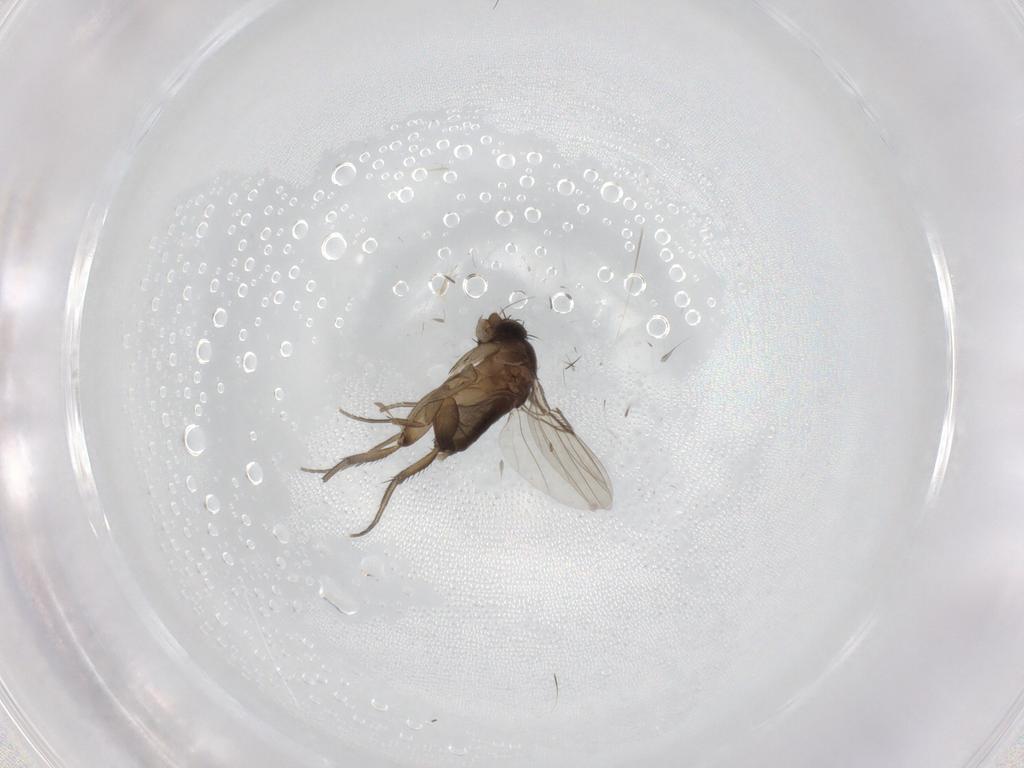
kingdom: Animalia
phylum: Arthropoda
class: Insecta
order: Diptera
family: Phoridae
